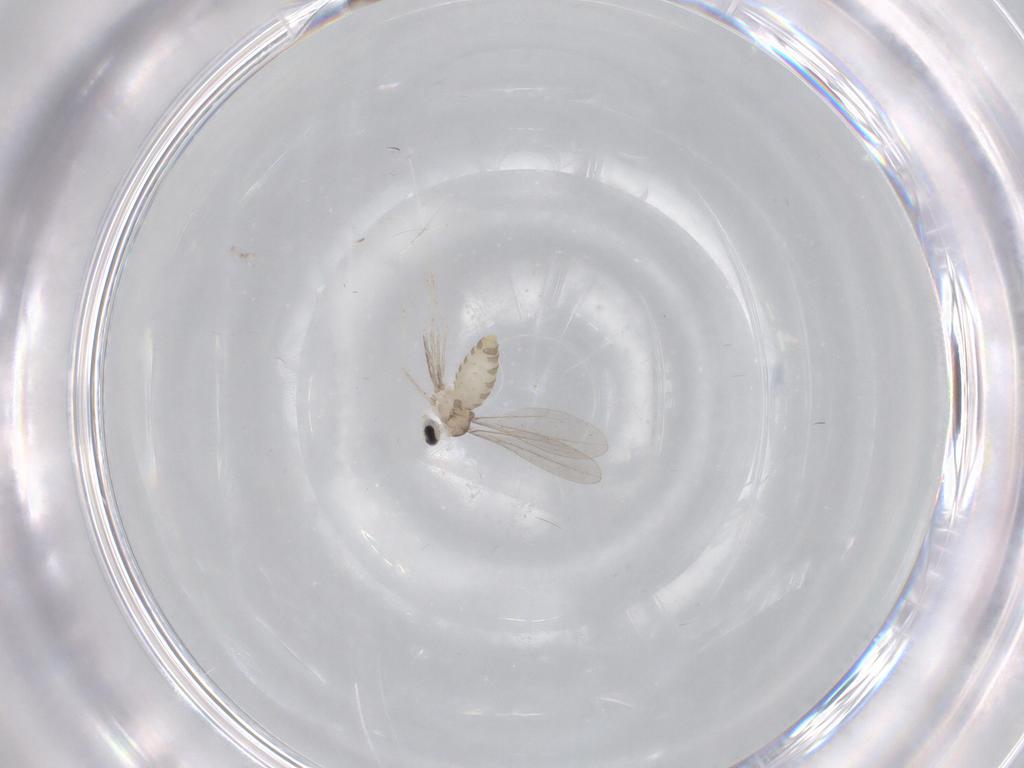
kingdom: Animalia
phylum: Arthropoda
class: Insecta
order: Diptera
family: Cecidomyiidae
